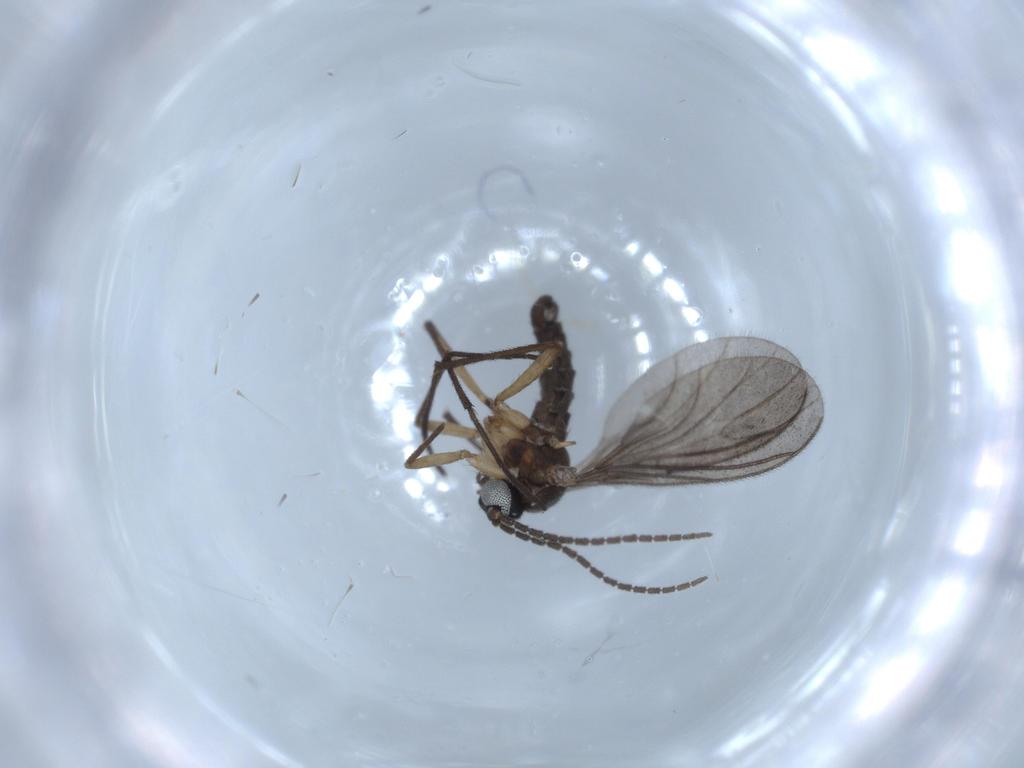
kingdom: Animalia
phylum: Arthropoda
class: Insecta
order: Diptera
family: Sciaridae
